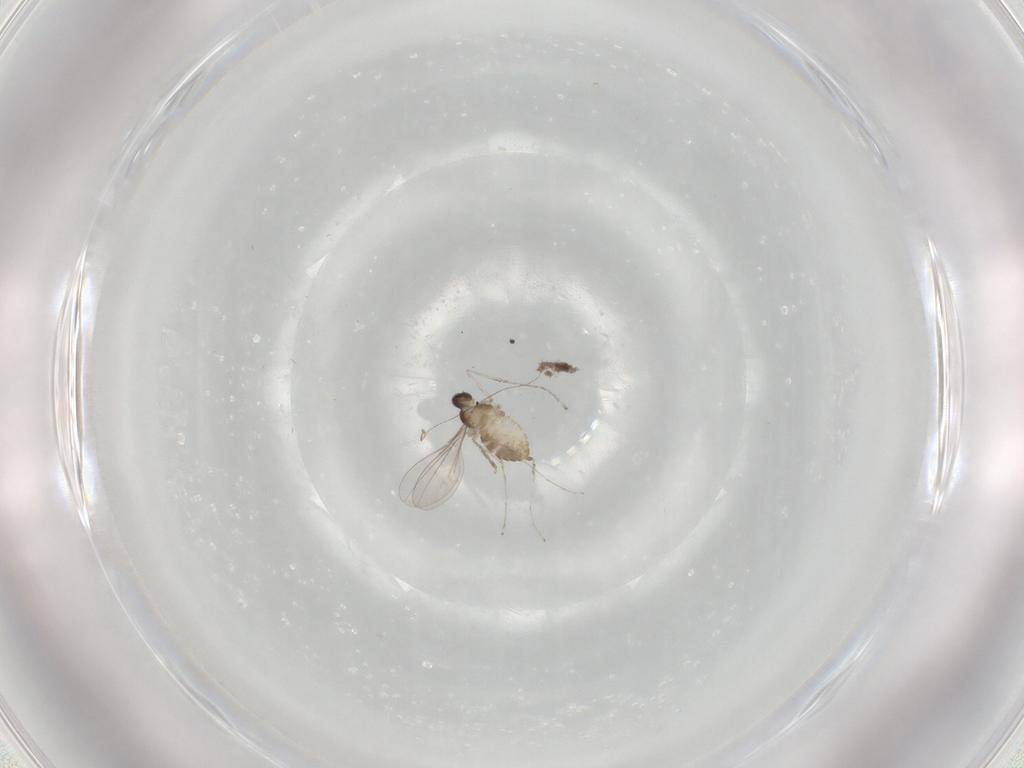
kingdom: Animalia
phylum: Arthropoda
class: Insecta
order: Diptera
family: Cecidomyiidae
